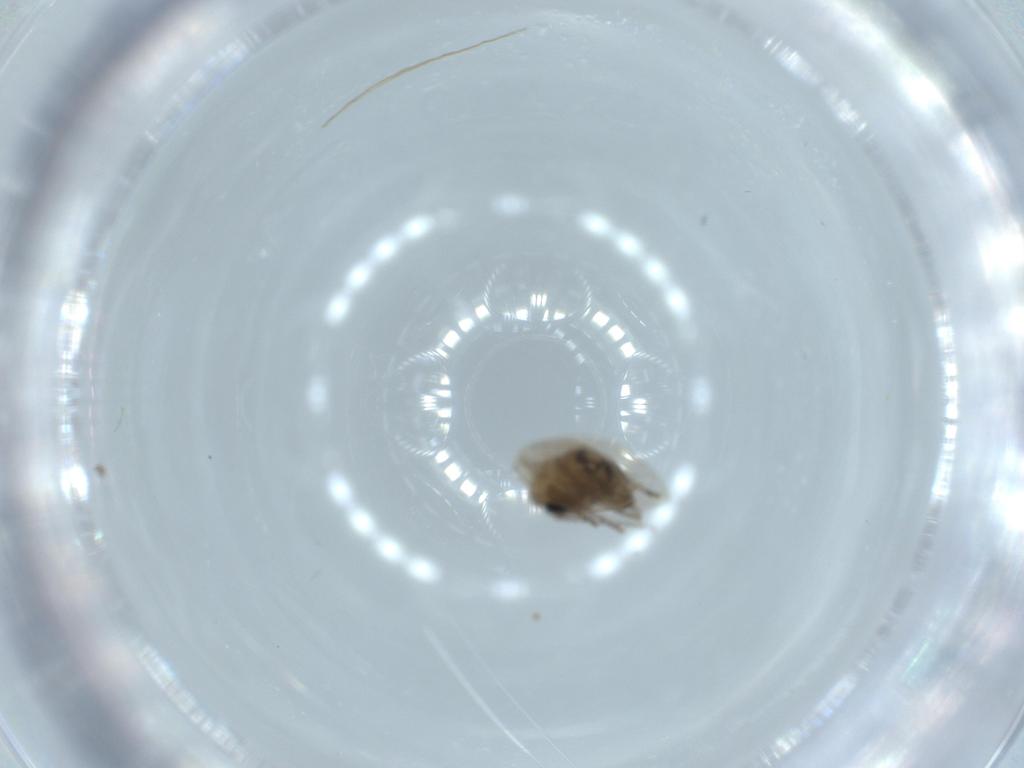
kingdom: Animalia
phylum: Arthropoda
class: Insecta
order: Diptera
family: Psychodidae
